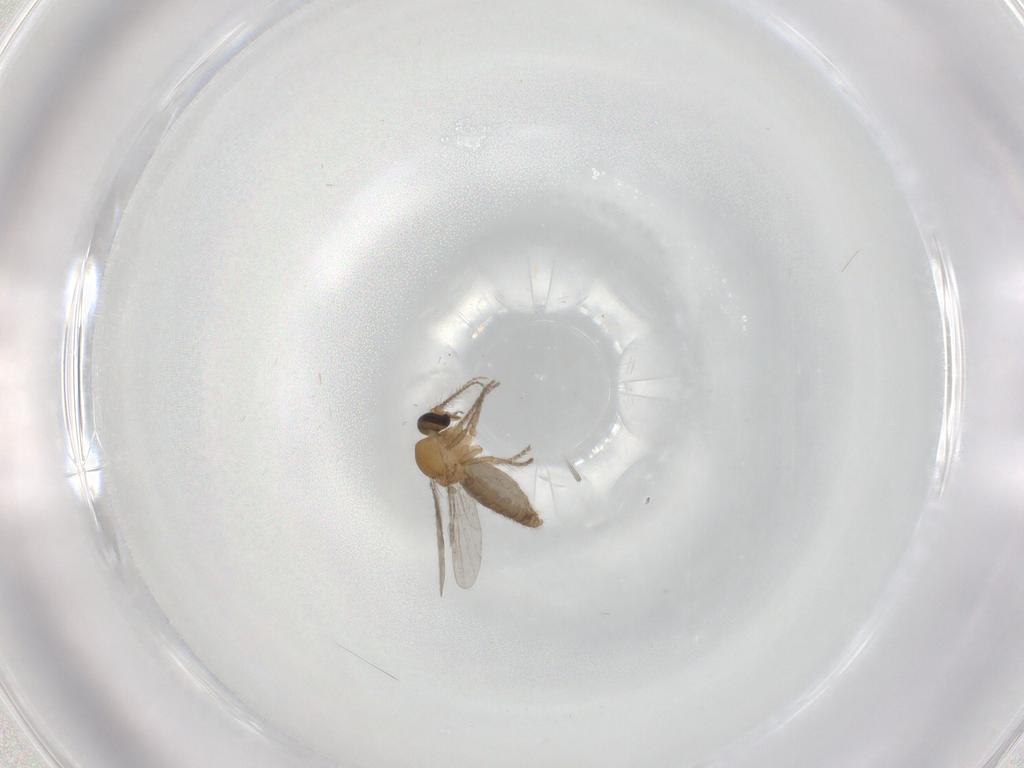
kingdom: Animalia
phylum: Arthropoda
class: Insecta
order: Diptera
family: Ceratopogonidae
